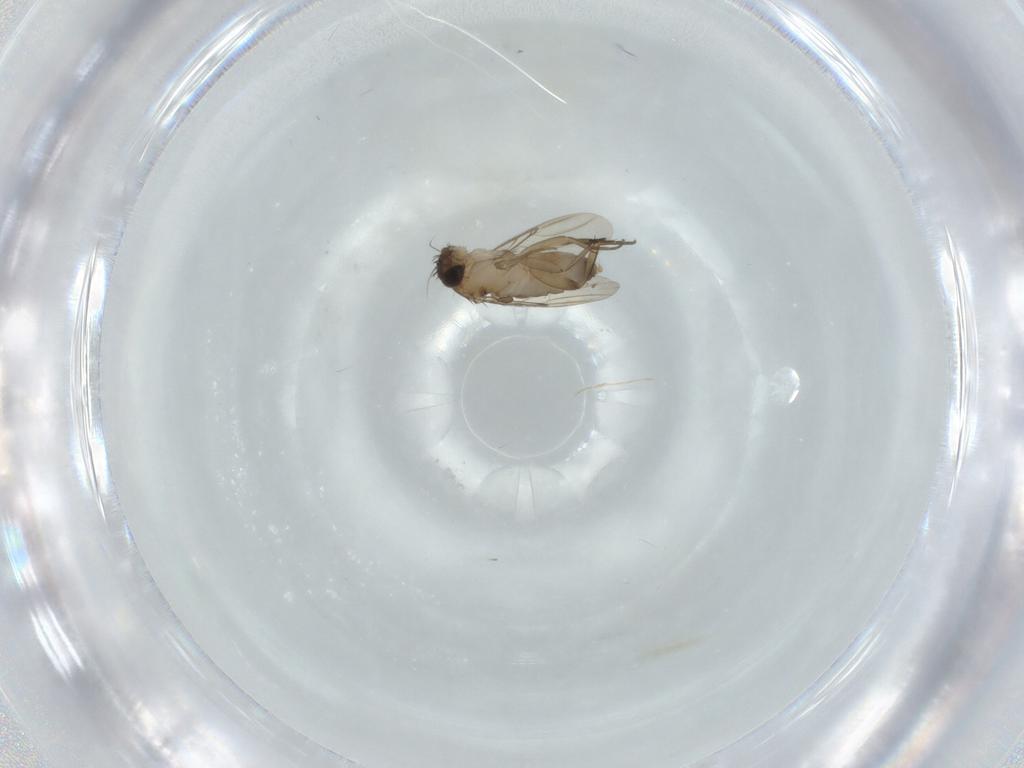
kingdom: Animalia
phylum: Arthropoda
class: Insecta
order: Diptera
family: Phoridae
